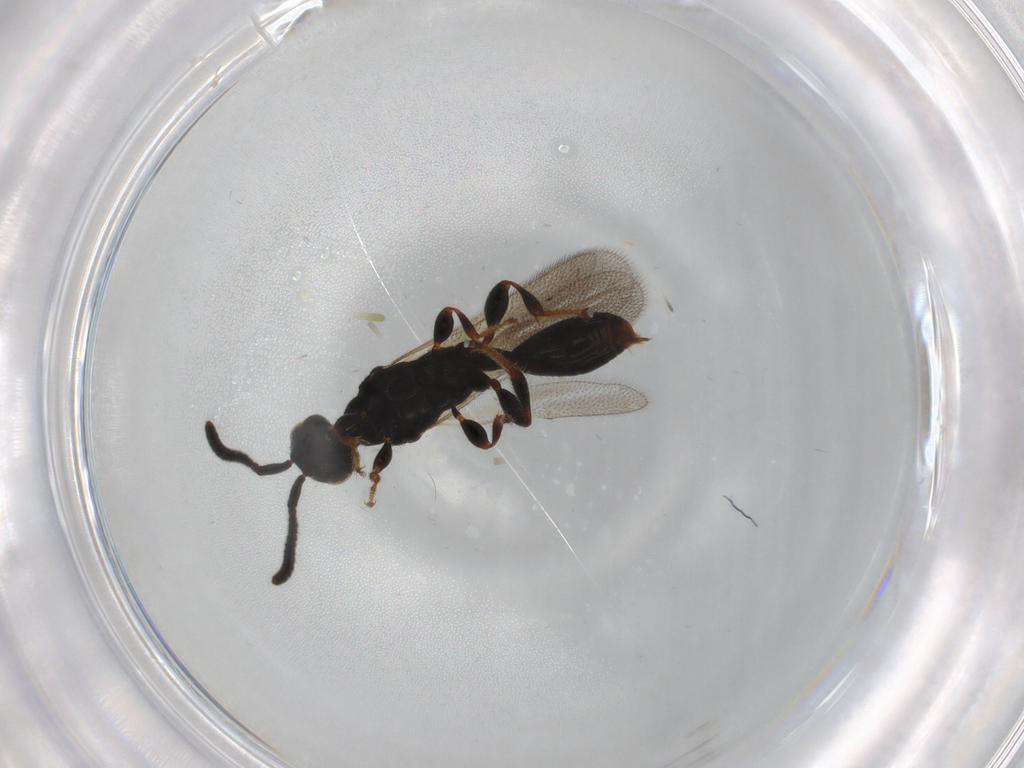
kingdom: Animalia
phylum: Arthropoda
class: Insecta
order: Hymenoptera
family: Diapriidae
